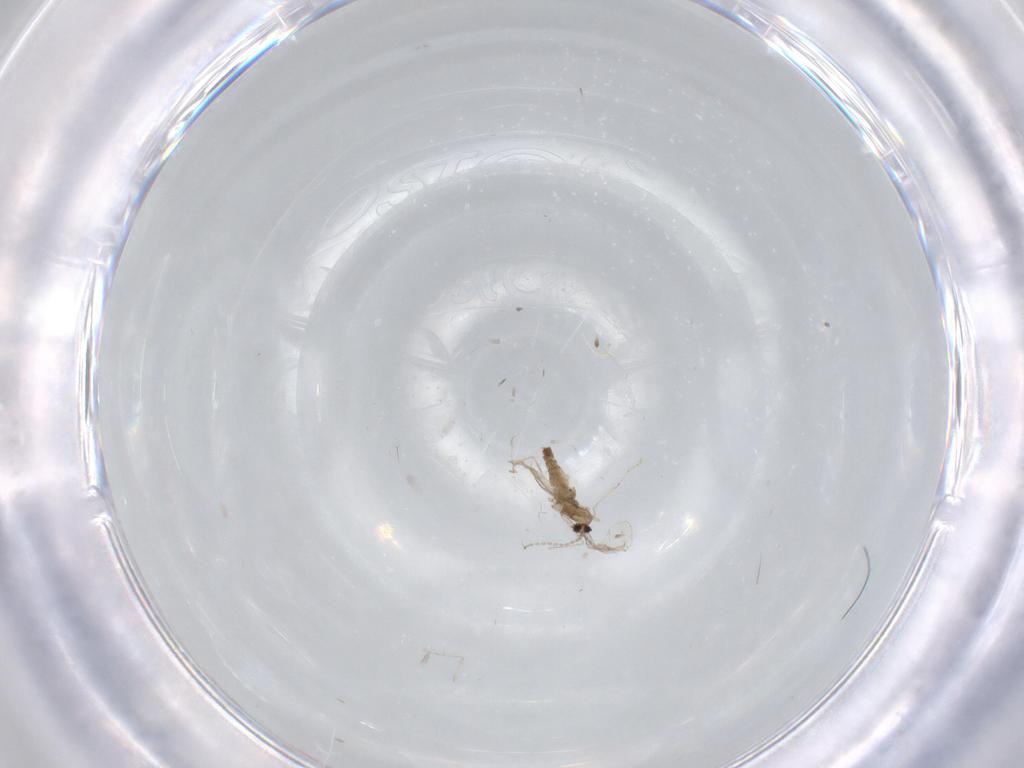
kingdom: Animalia
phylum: Arthropoda
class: Insecta
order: Diptera
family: Cecidomyiidae
